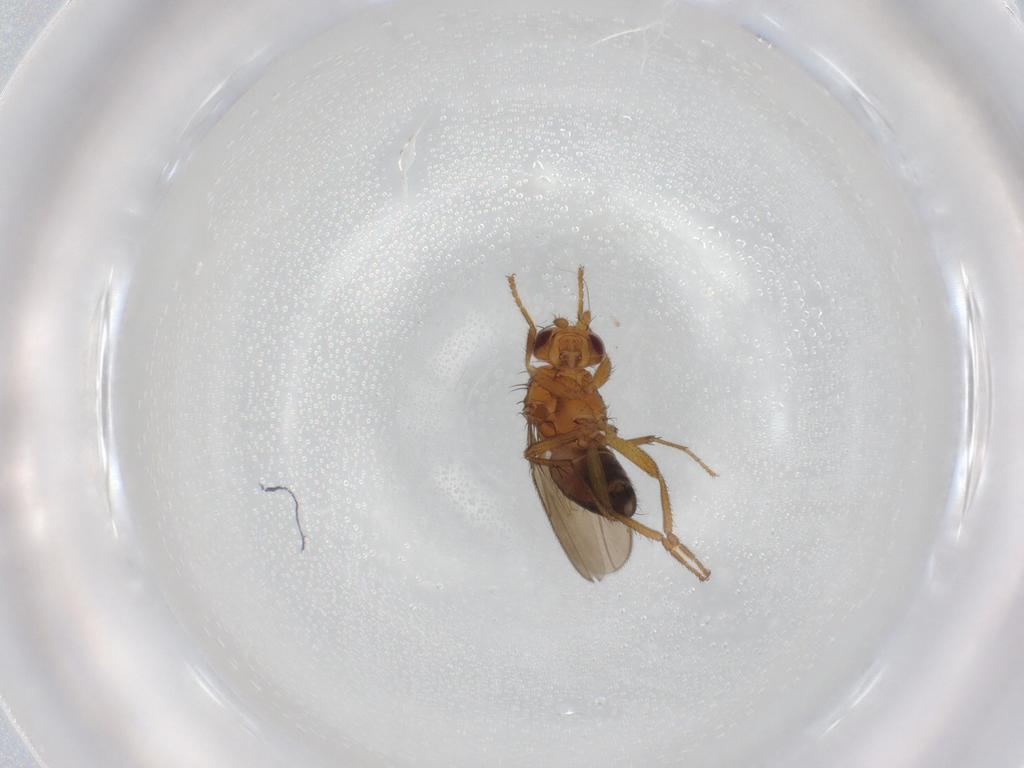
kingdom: Animalia
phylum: Arthropoda
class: Insecta
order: Diptera
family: Sphaeroceridae
